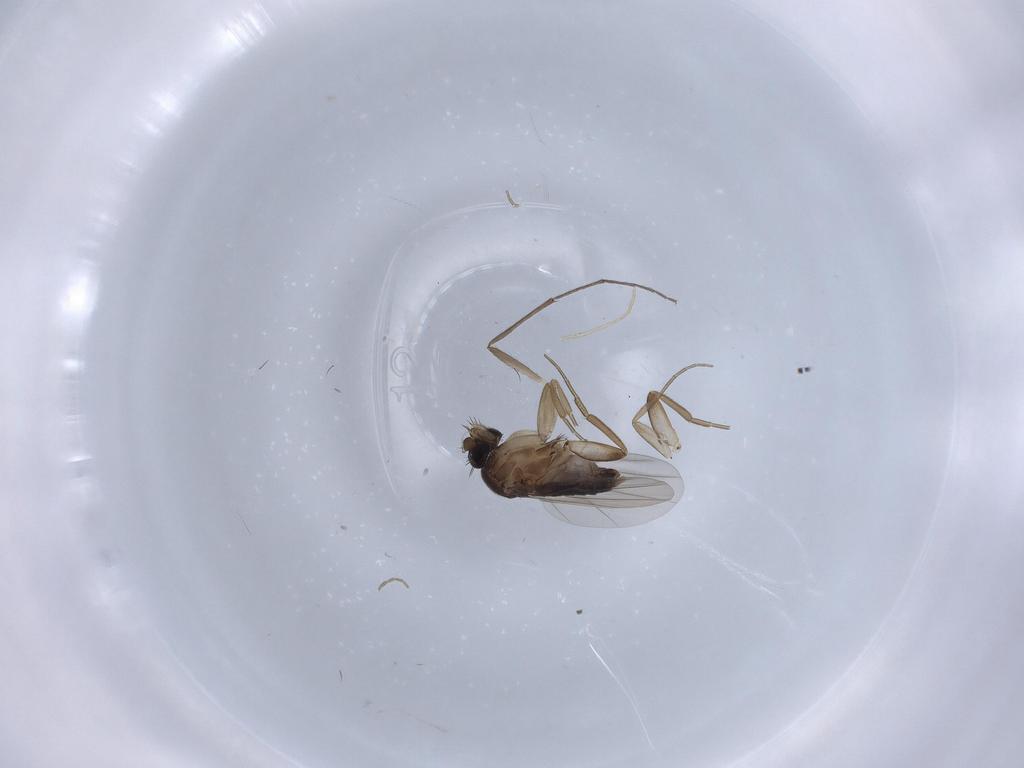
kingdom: Animalia
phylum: Arthropoda
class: Insecta
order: Diptera
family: Phoridae
